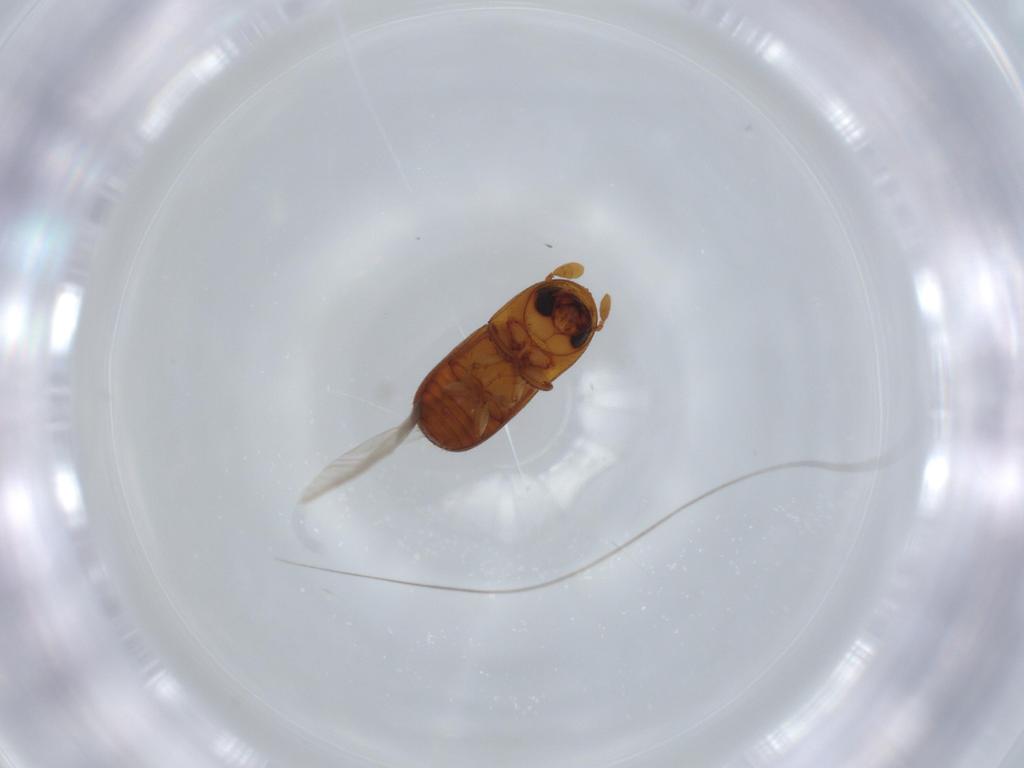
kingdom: Animalia
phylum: Arthropoda
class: Insecta
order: Coleoptera
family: Curculionidae
